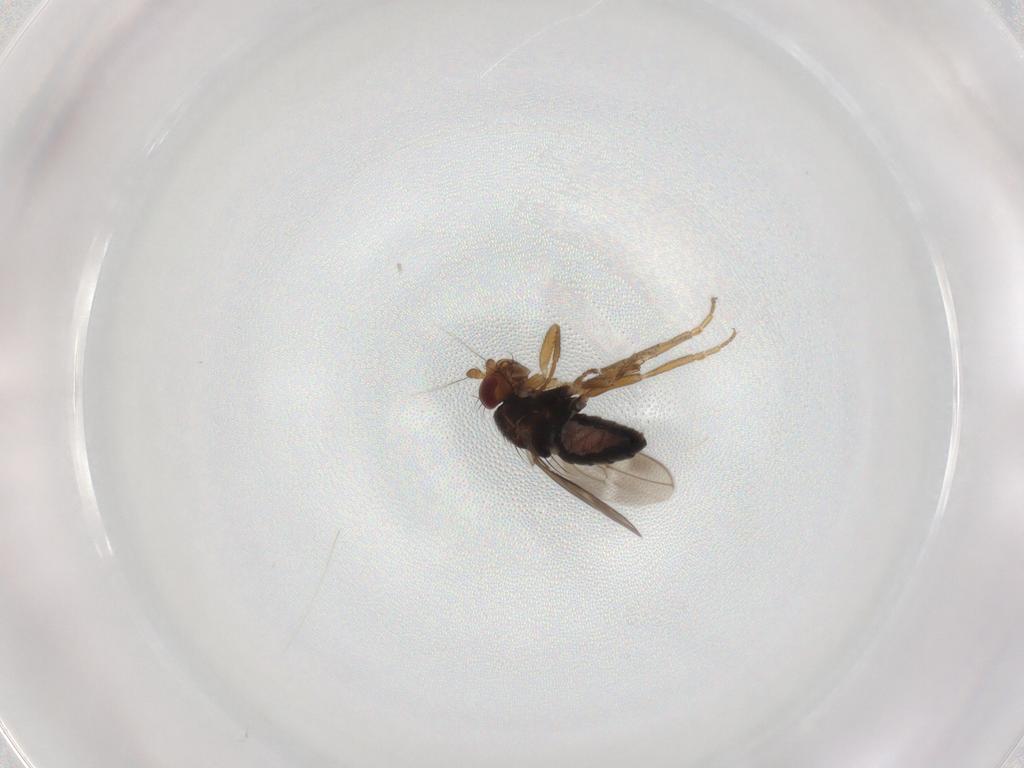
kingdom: Animalia
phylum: Arthropoda
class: Insecta
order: Diptera
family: Sphaeroceridae
